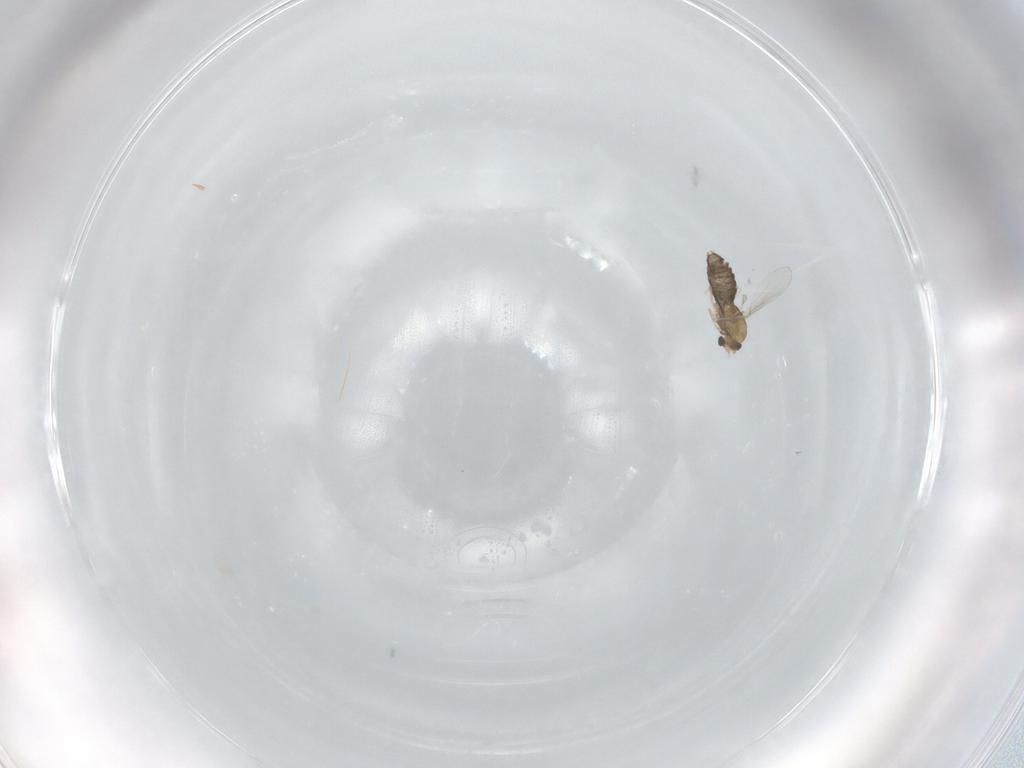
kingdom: Animalia
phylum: Arthropoda
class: Insecta
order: Diptera
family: Chironomidae
